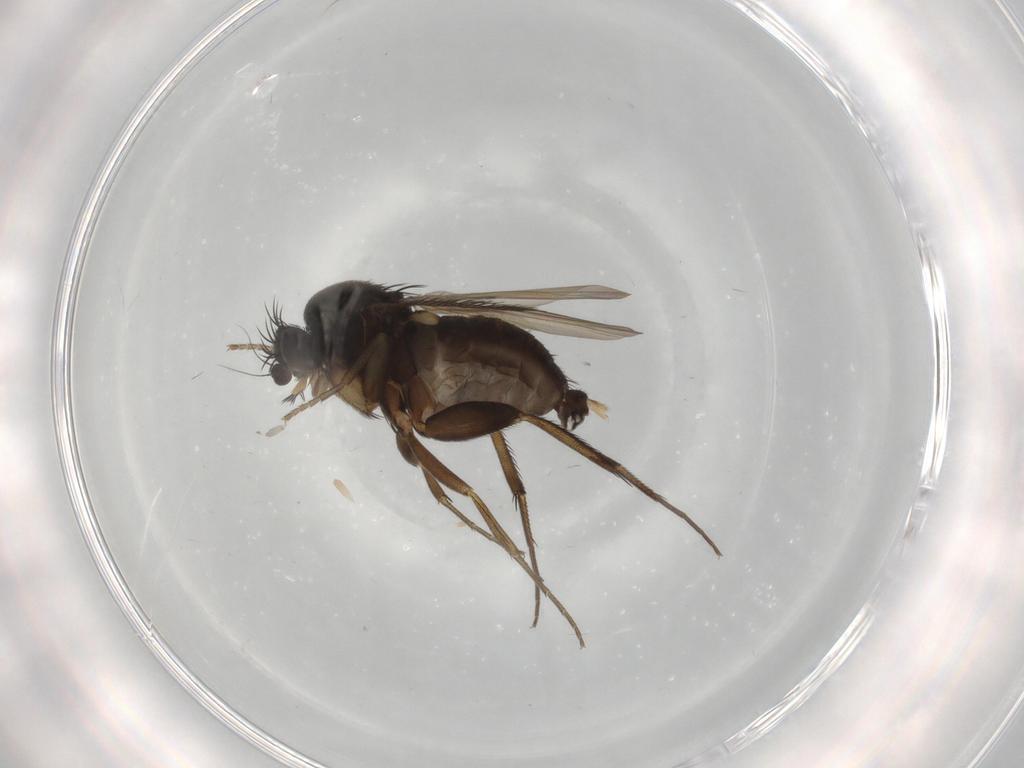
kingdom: Animalia
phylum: Arthropoda
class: Insecta
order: Diptera
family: Phoridae
